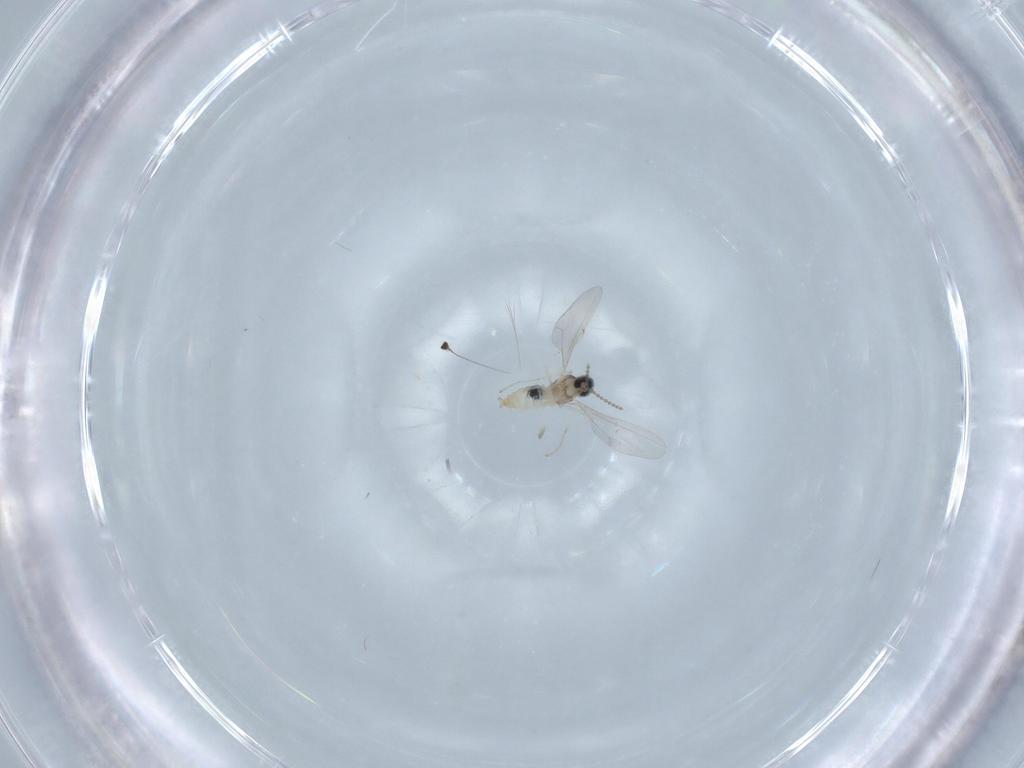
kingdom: Animalia
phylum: Arthropoda
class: Insecta
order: Diptera
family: Cecidomyiidae
